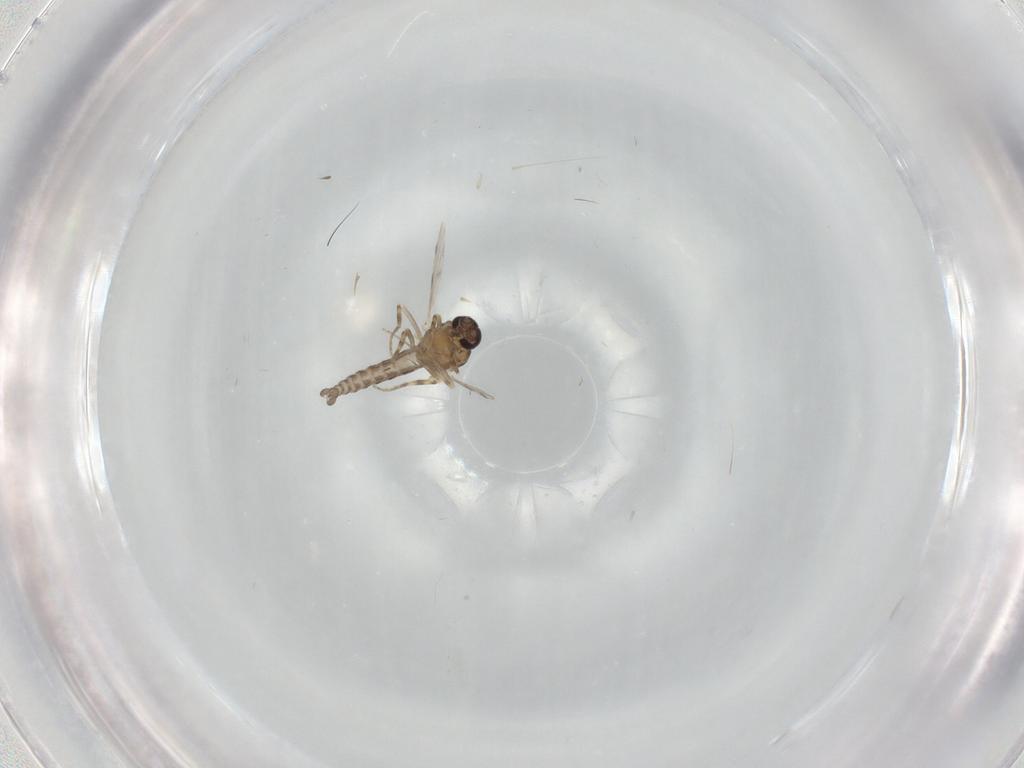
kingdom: Animalia
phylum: Arthropoda
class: Insecta
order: Diptera
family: Ceratopogonidae
